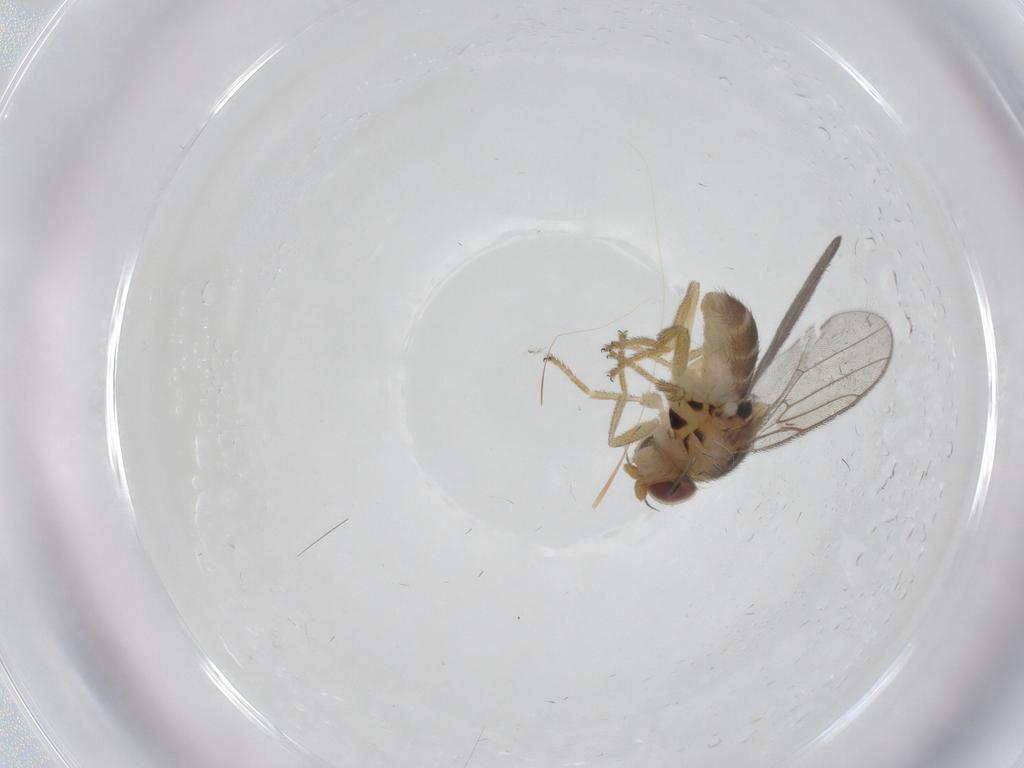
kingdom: Animalia
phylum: Arthropoda
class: Insecta
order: Diptera
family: Chloropidae
